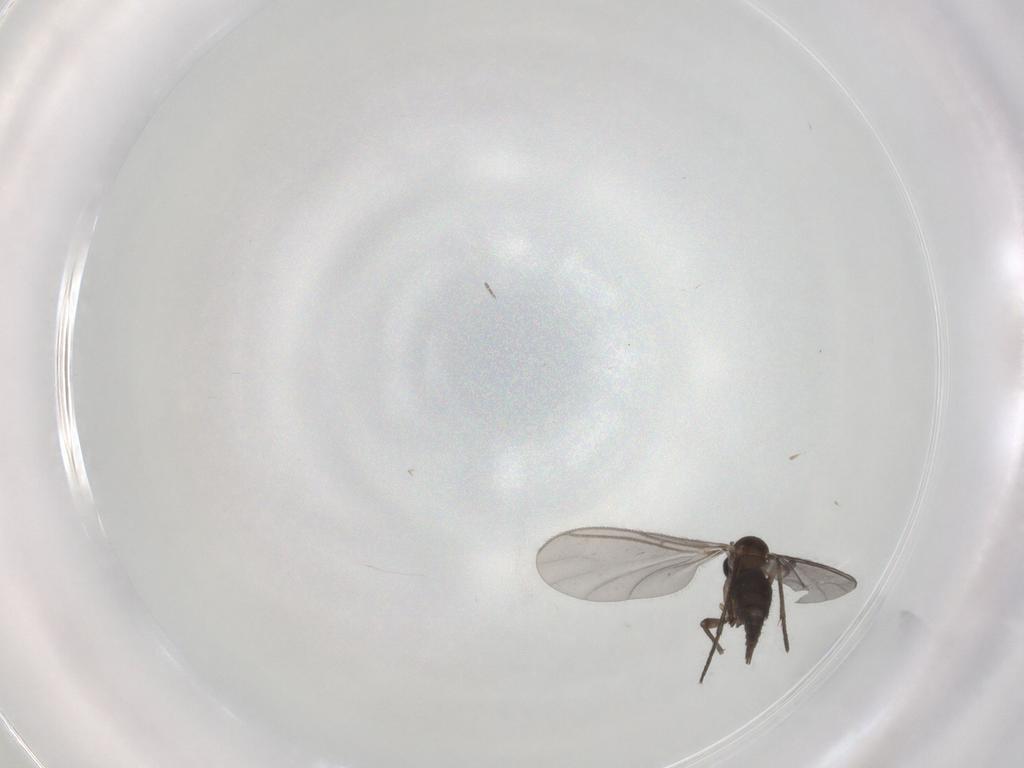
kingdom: Animalia
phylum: Arthropoda
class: Insecta
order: Diptera
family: Sciaridae
